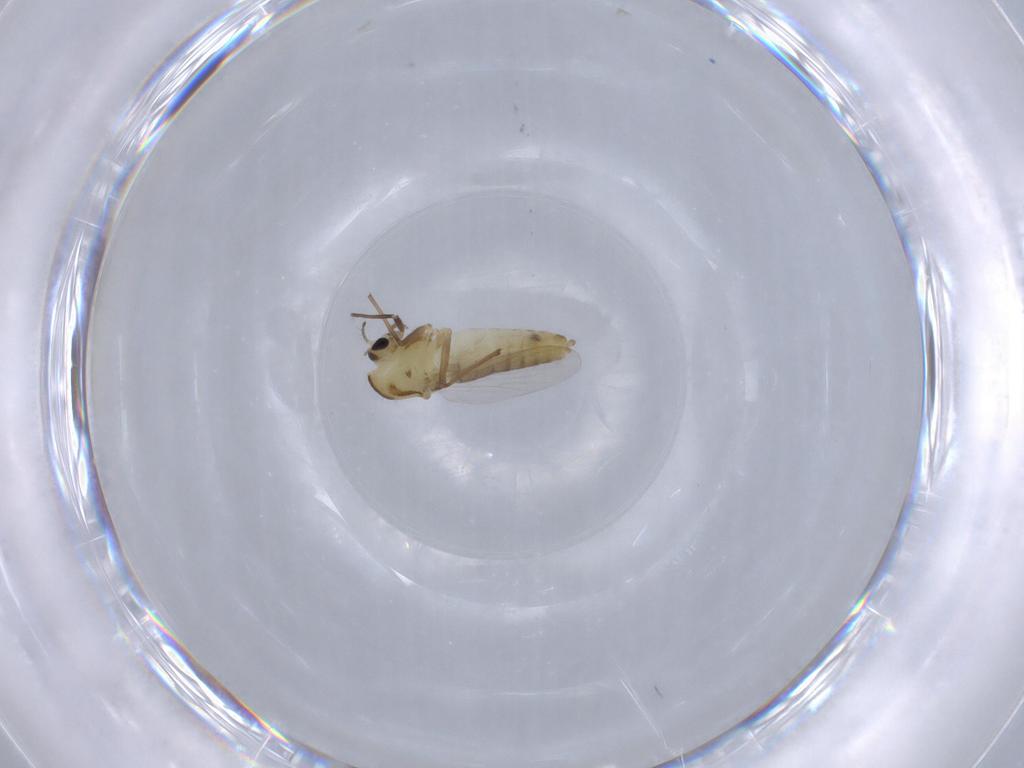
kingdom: Animalia
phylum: Arthropoda
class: Insecta
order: Diptera
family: Chironomidae
